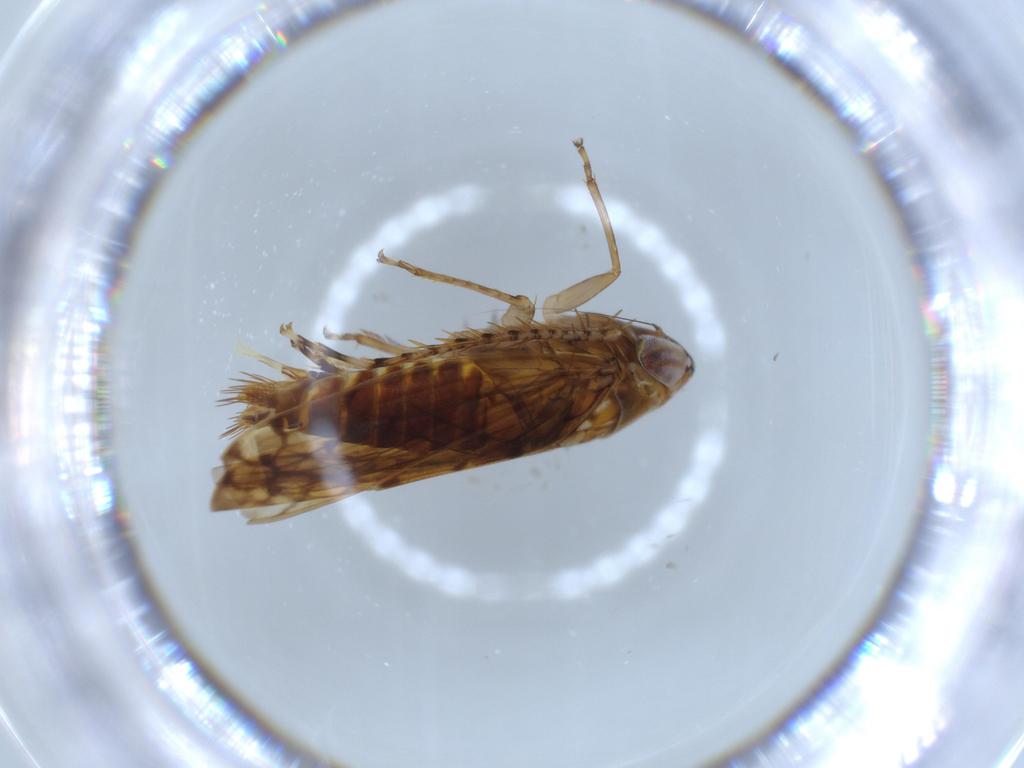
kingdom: Animalia
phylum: Arthropoda
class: Insecta
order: Hemiptera
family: Cicadellidae
